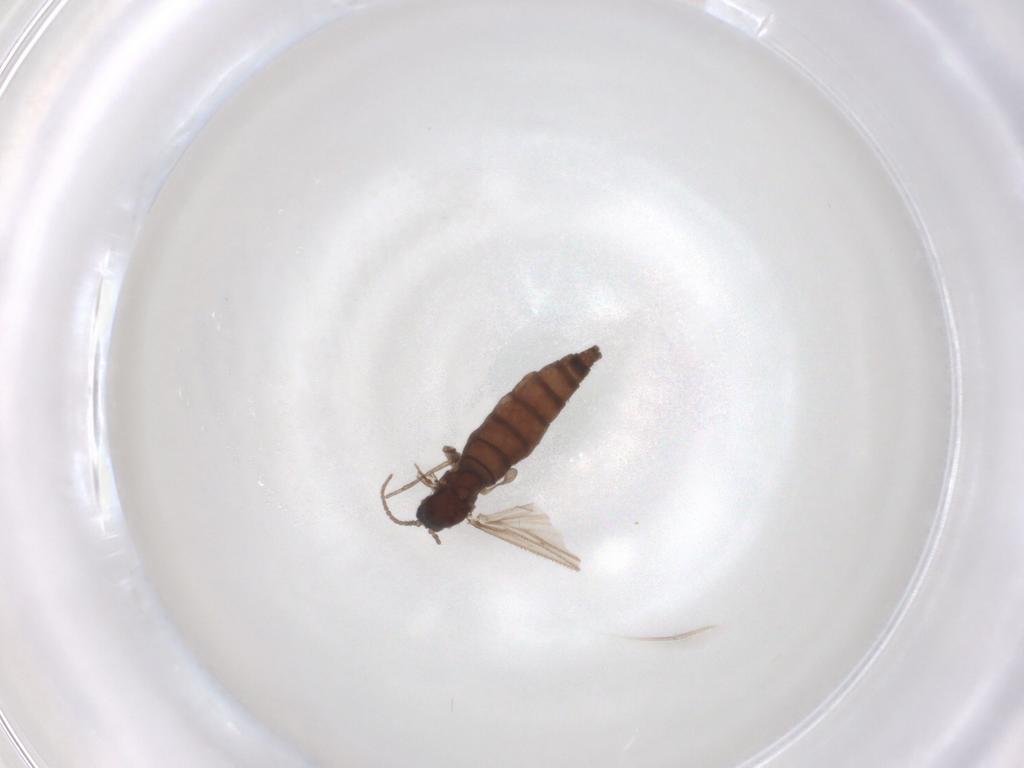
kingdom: Animalia
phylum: Arthropoda
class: Insecta
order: Diptera
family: Sciaridae
